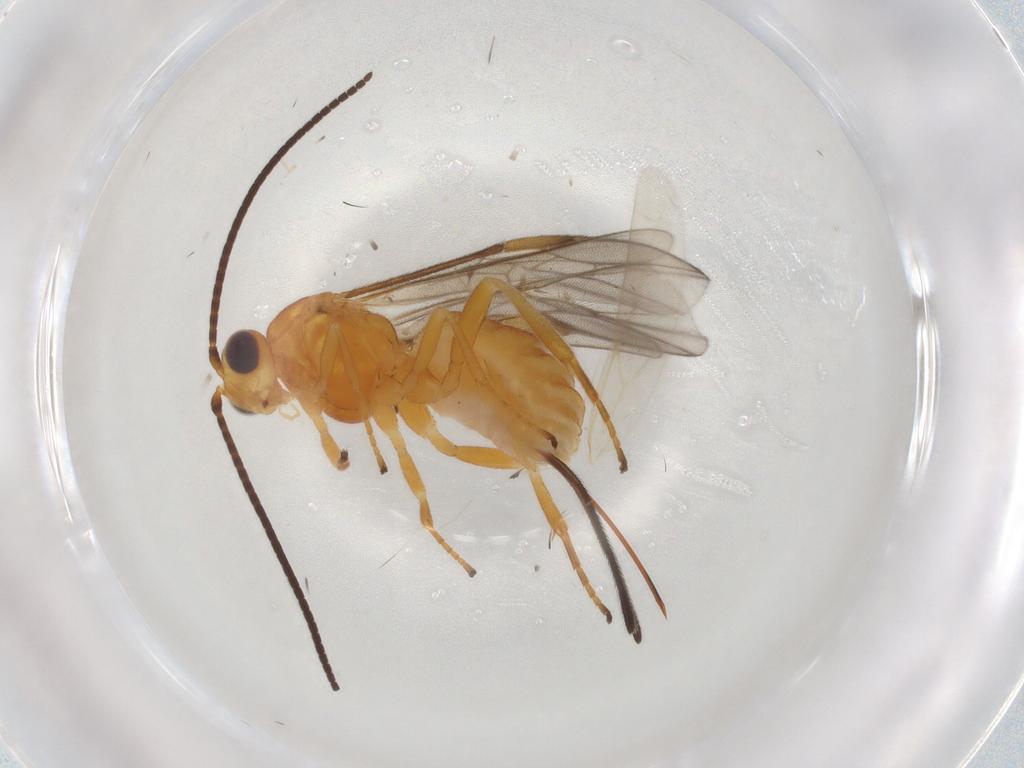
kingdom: Animalia
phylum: Arthropoda
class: Insecta
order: Hymenoptera
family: Braconidae
